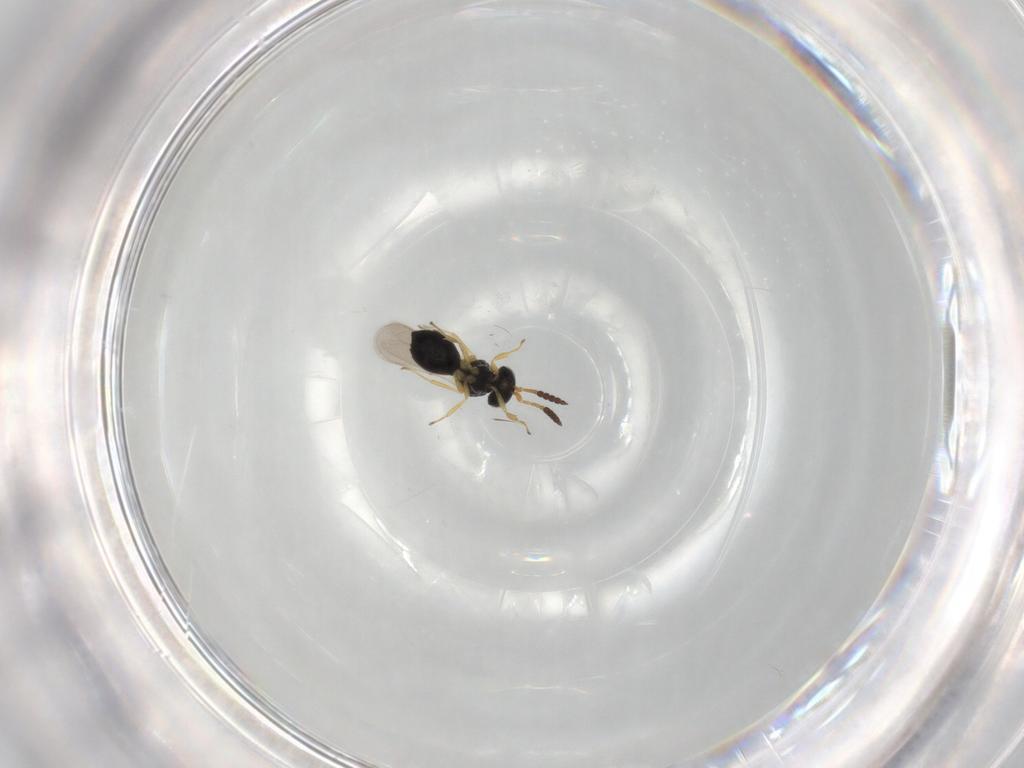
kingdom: Animalia
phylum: Arthropoda
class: Insecta
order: Hymenoptera
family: Scelionidae
